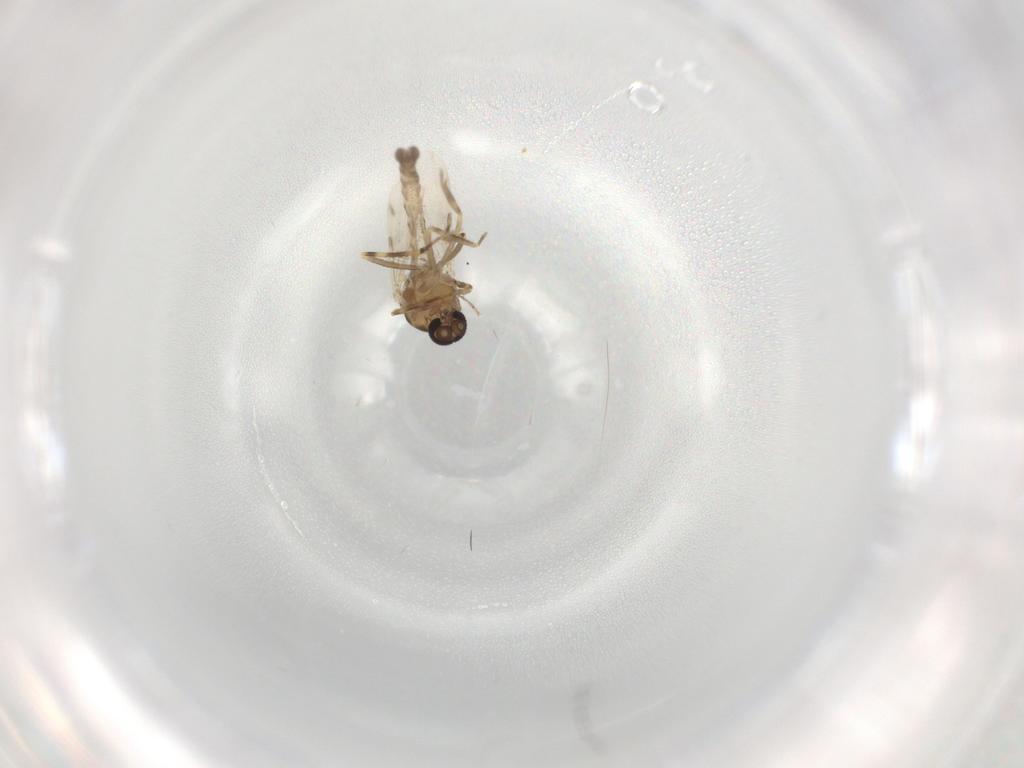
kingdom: Animalia
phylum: Arthropoda
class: Insecta
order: Diptera
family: Ceratopogonidae
